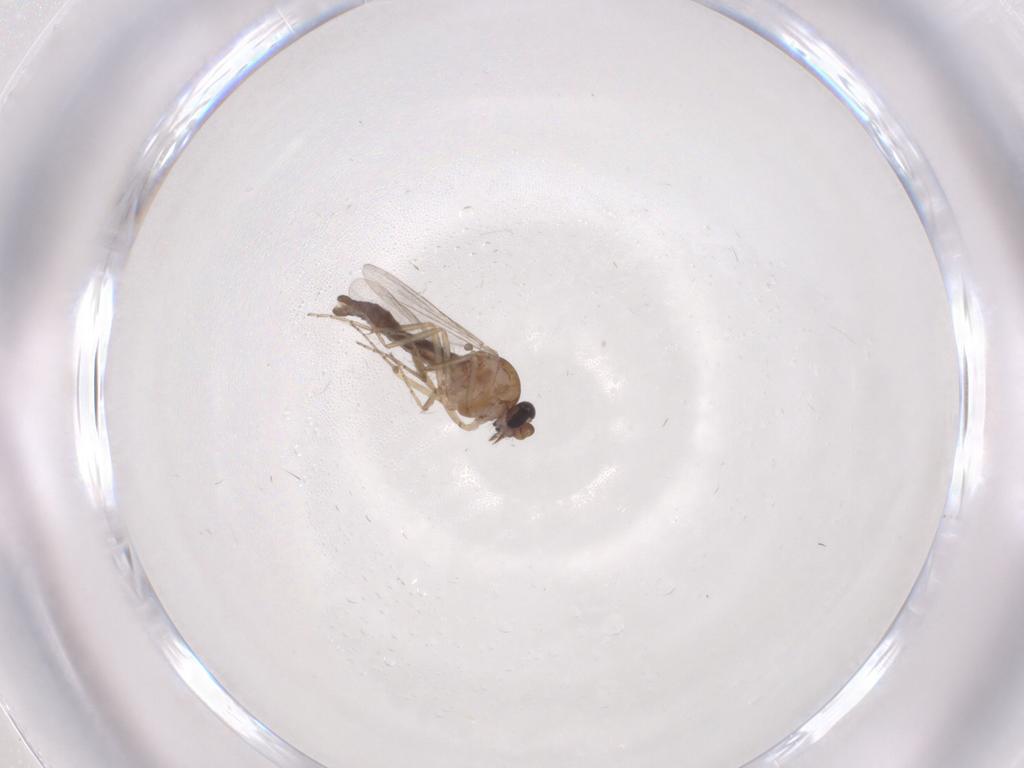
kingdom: Animalia
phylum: Arthropoda
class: Insecta
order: Diptera
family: Ceratopogonidae
